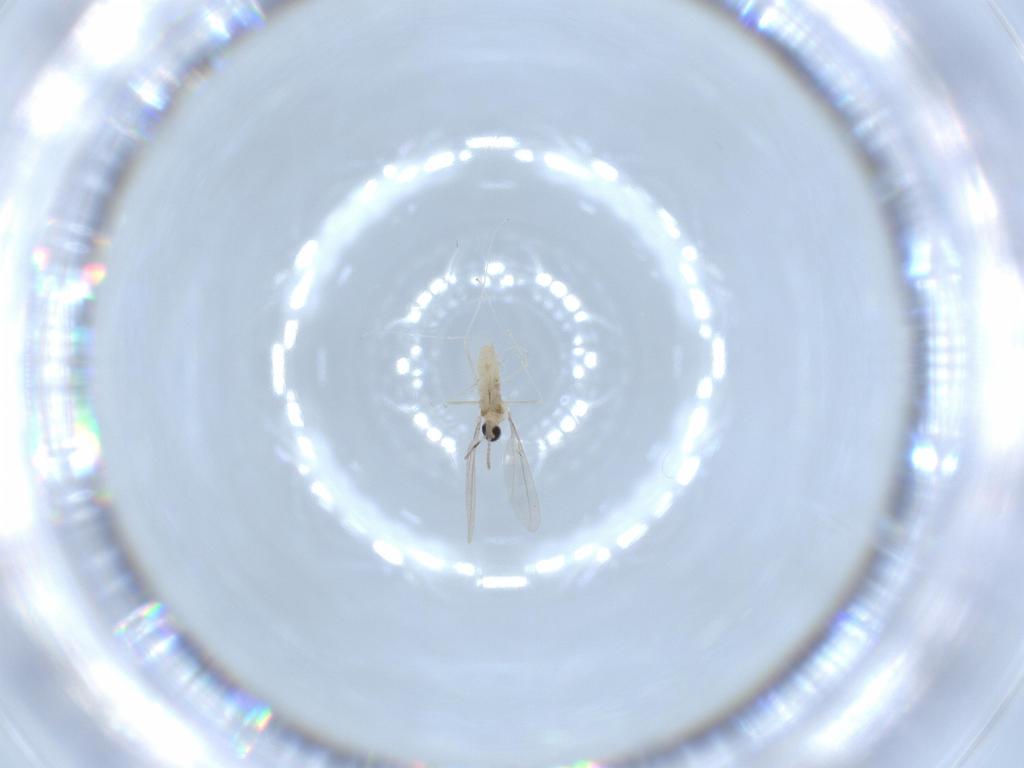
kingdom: Animalia
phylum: Arthropoda
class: Insecta
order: Diptera
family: Cecidomyiidae
